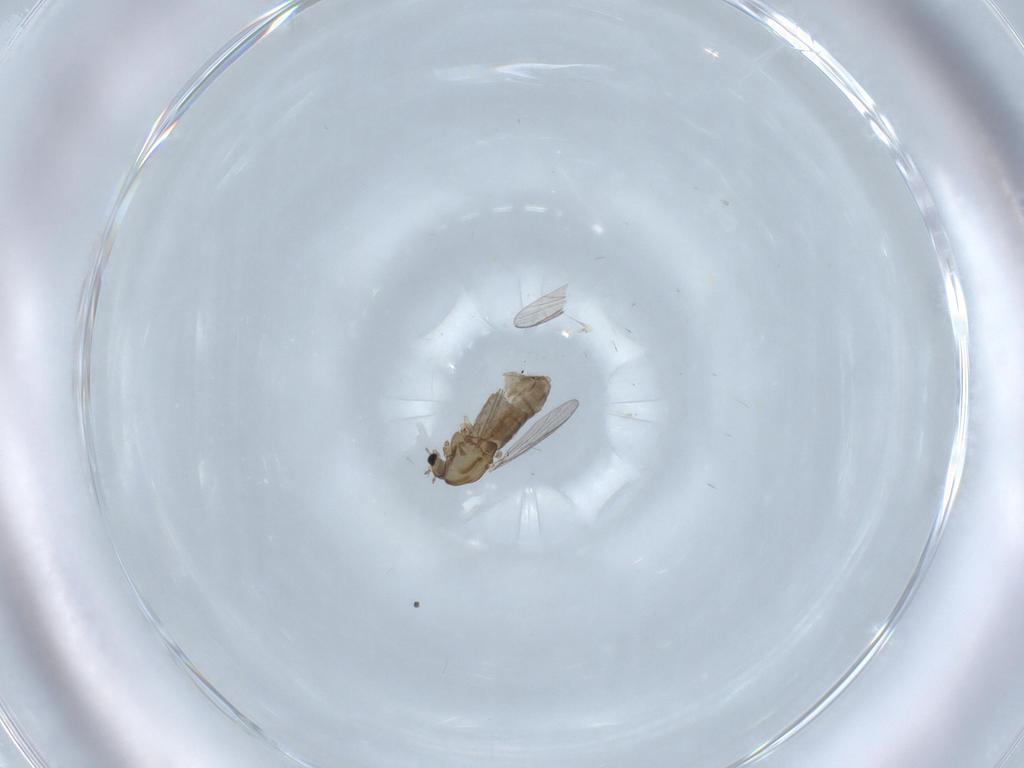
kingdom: Animalia
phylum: Arthropoda
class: Insecta
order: Diptera
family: Chironomidae
